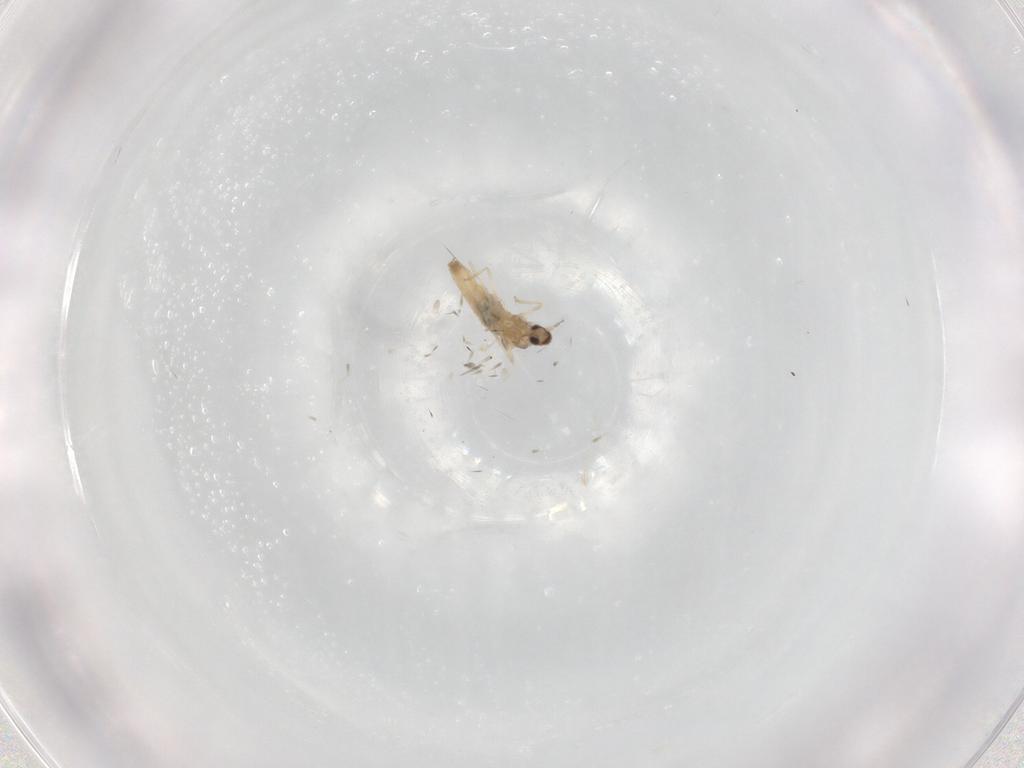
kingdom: Animalia
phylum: Arthropoda
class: Insecta
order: Diptera
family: Cecidomyiidae
